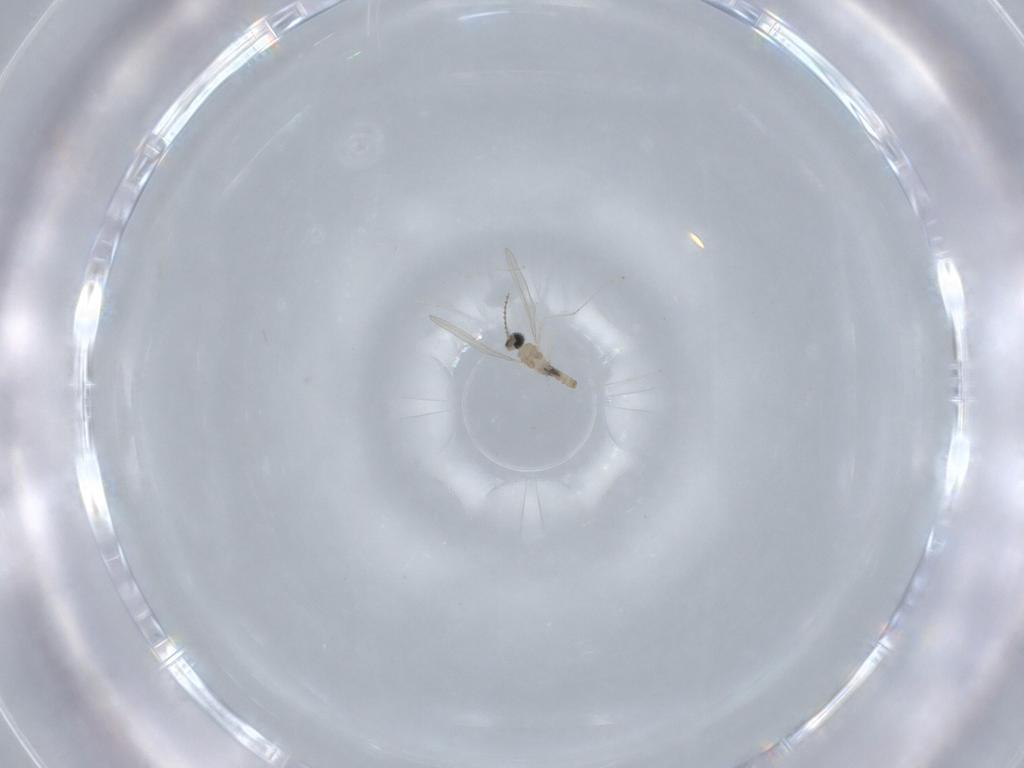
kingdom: Animalia
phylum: Arthropoda
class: Insecta
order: Diptera
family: Cecidomyiidae
